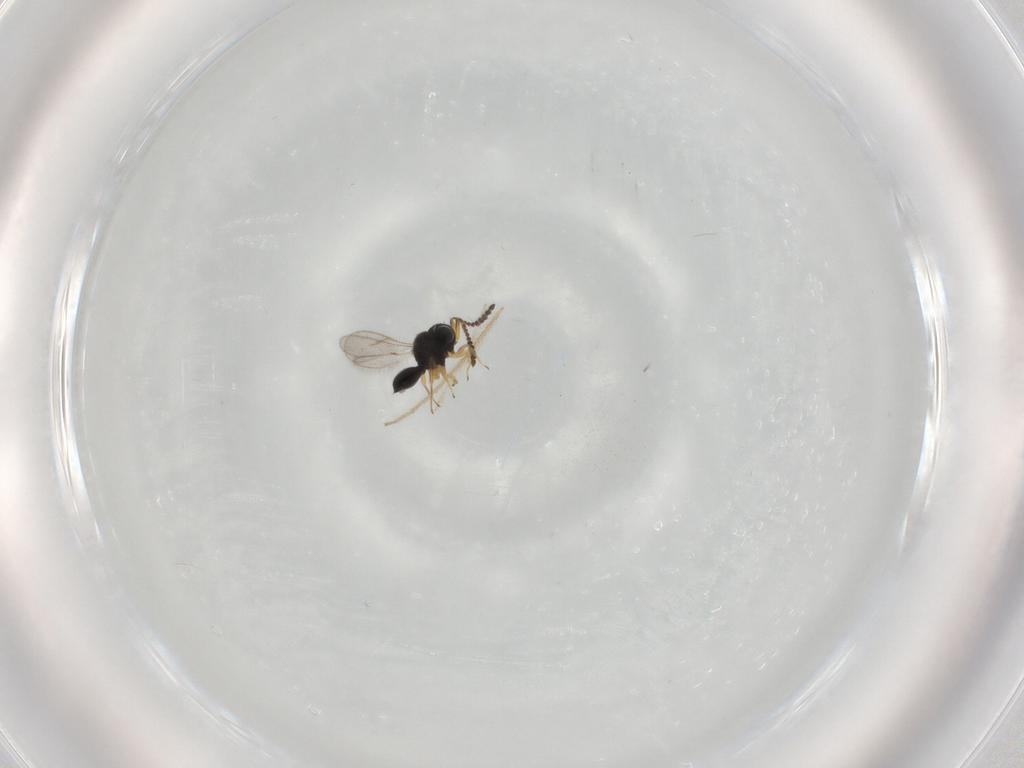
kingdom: Animalia
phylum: Arthropoda
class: Insecta
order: Hymenoptera
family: Scelionidae
